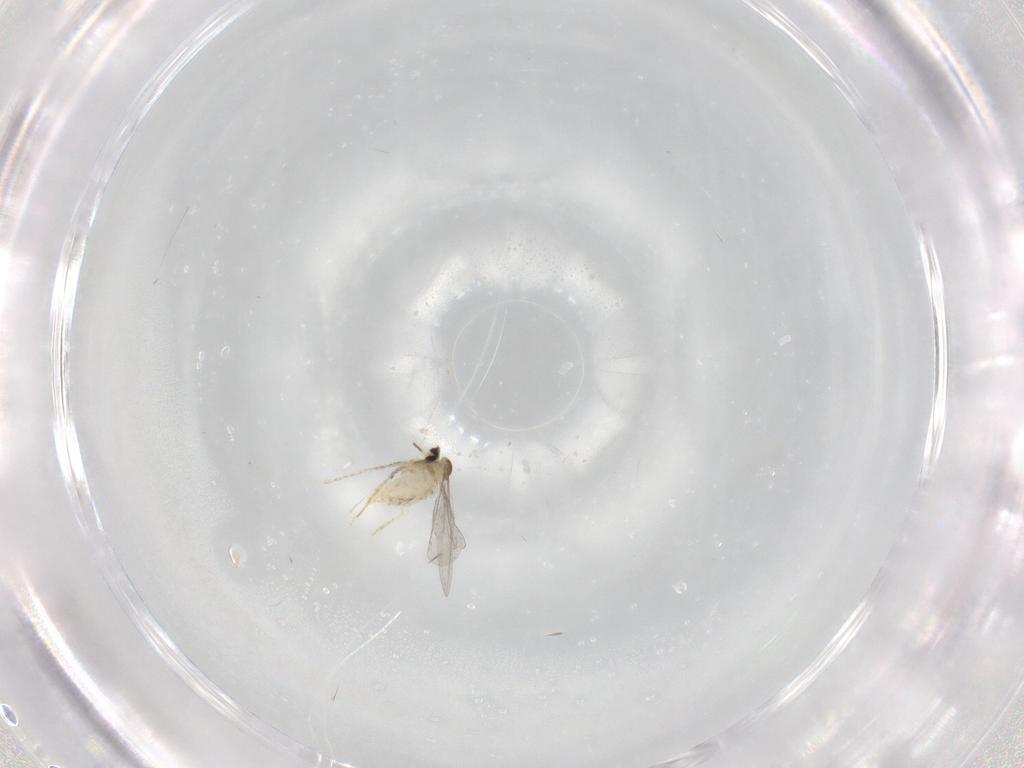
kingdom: Animalia
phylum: Arthropoda
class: Insecta
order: Diptera
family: Cecidomyiidae
